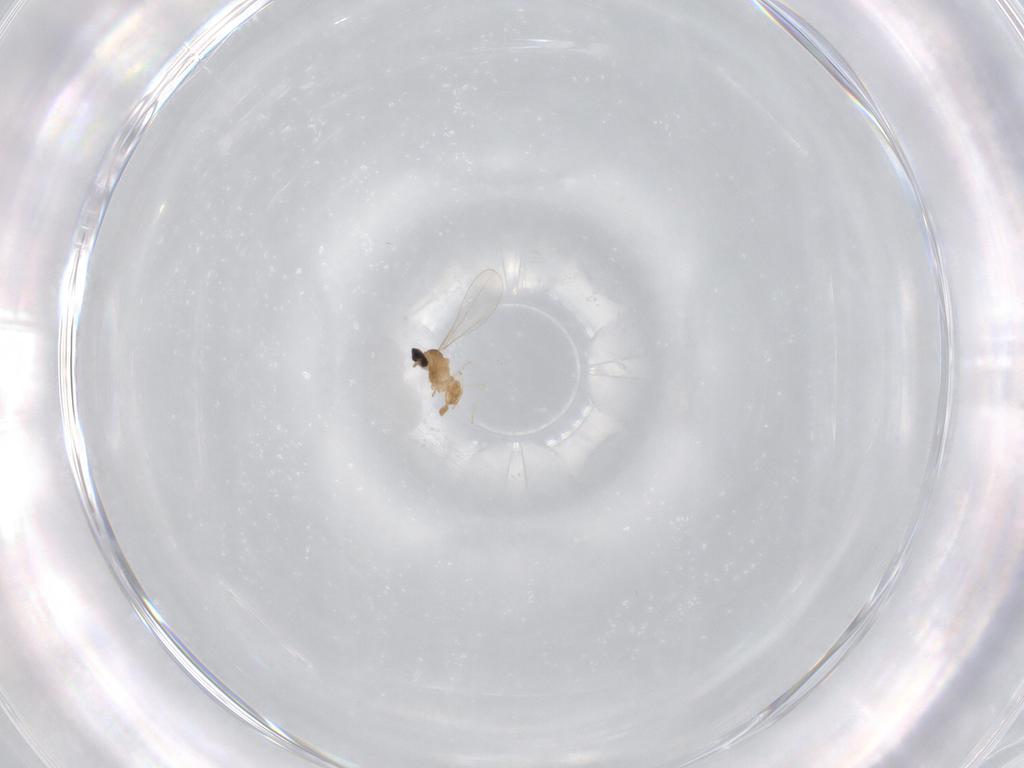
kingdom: Animalia
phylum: Arthropoda
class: Insecta
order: Diptera
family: Cecidomyiidae
